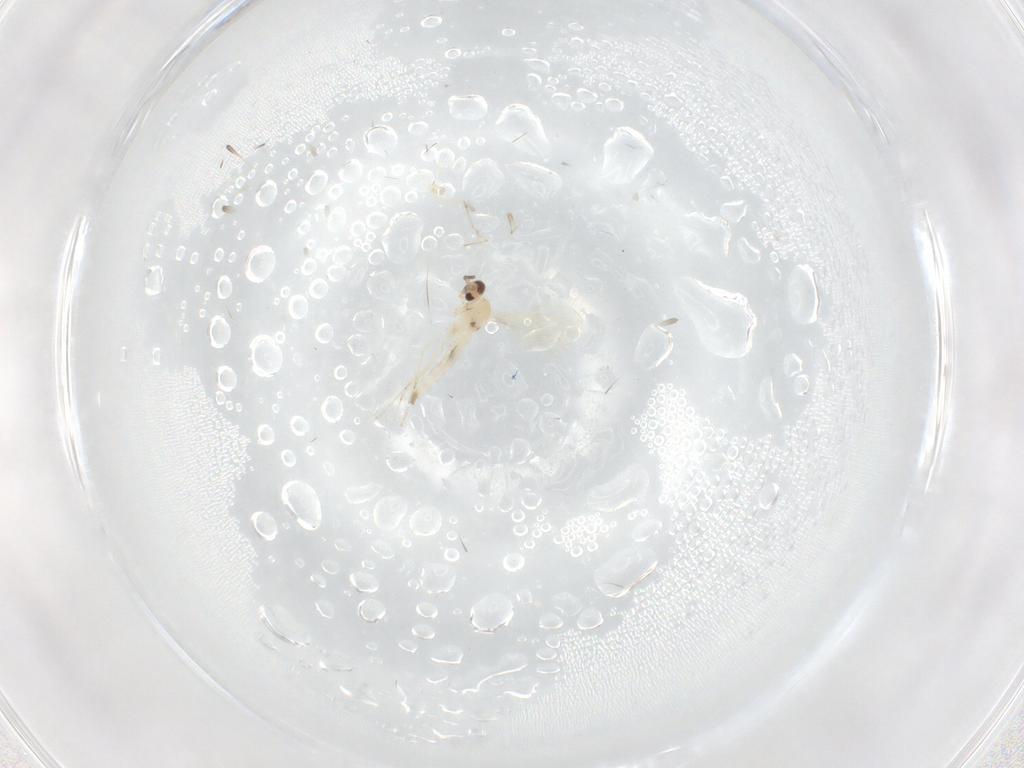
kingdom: Animalia
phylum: Arthropoda
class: Insecta
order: Diptera
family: Cecidomyiidae
